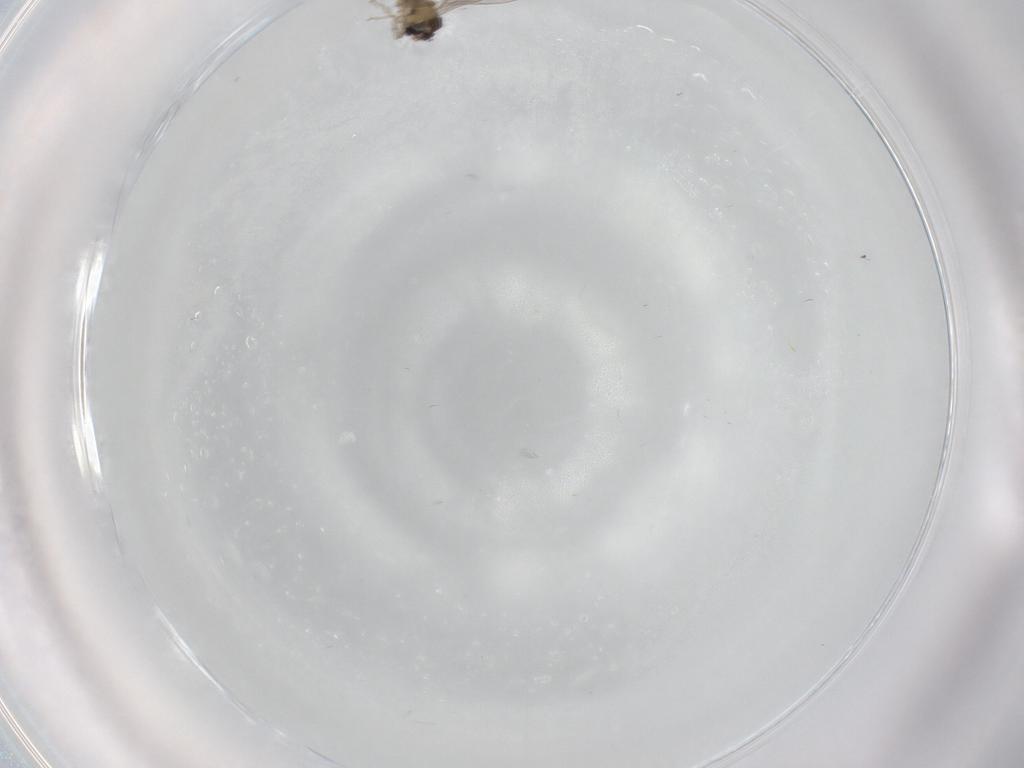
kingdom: Animalia
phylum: Arthropoda
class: Insecta
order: Diptera
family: Cecidomyiidae
